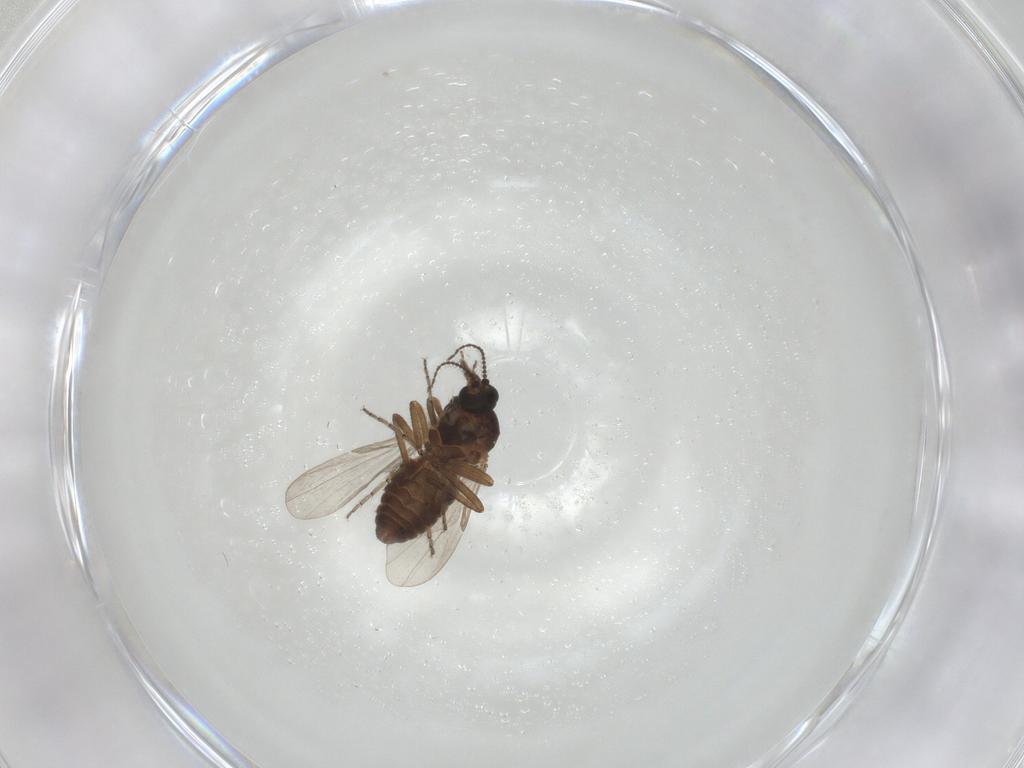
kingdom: Animalia
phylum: Arthropoda
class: Insecta
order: Diptera
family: Ceratopogonidae
